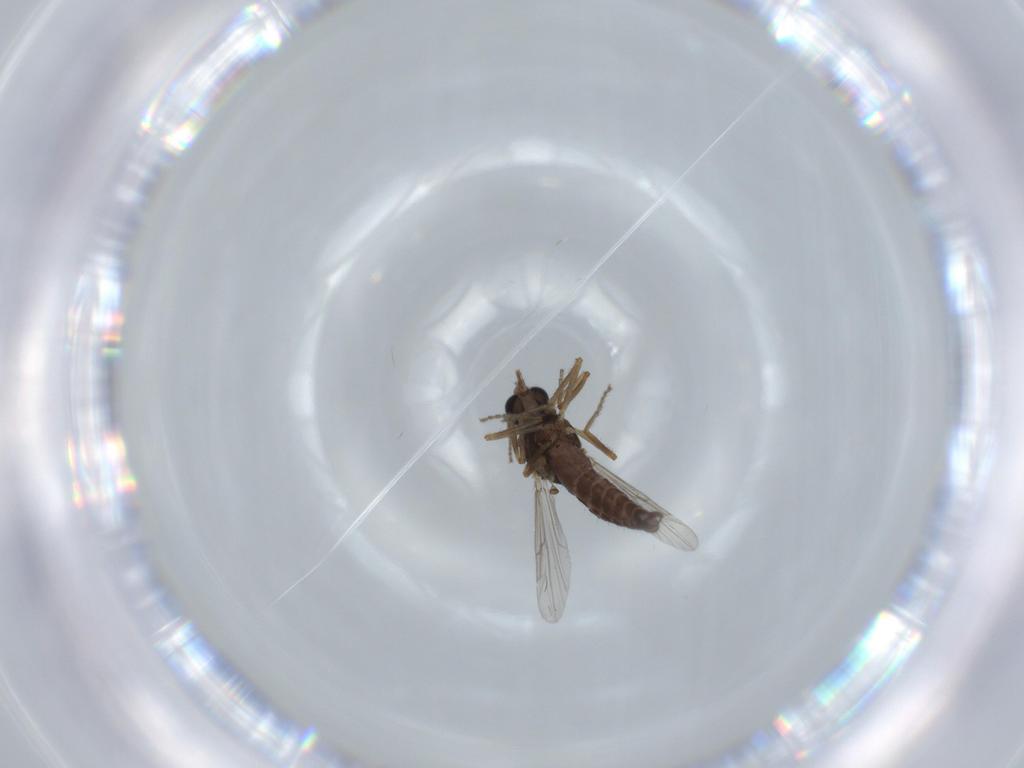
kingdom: Animalia
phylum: Arthropoda
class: Insecta
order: Diptera
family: Sciaridae
